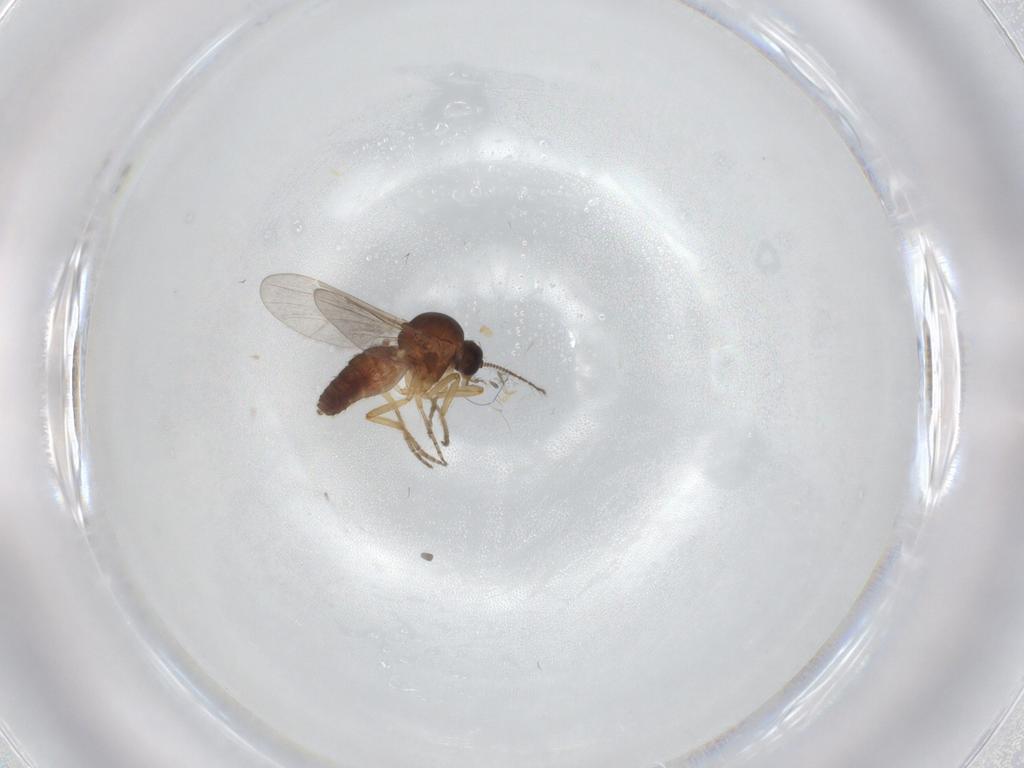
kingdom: Animalia
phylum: Arthropoda
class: Insecta
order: Diptera
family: Ceratopogonidae
